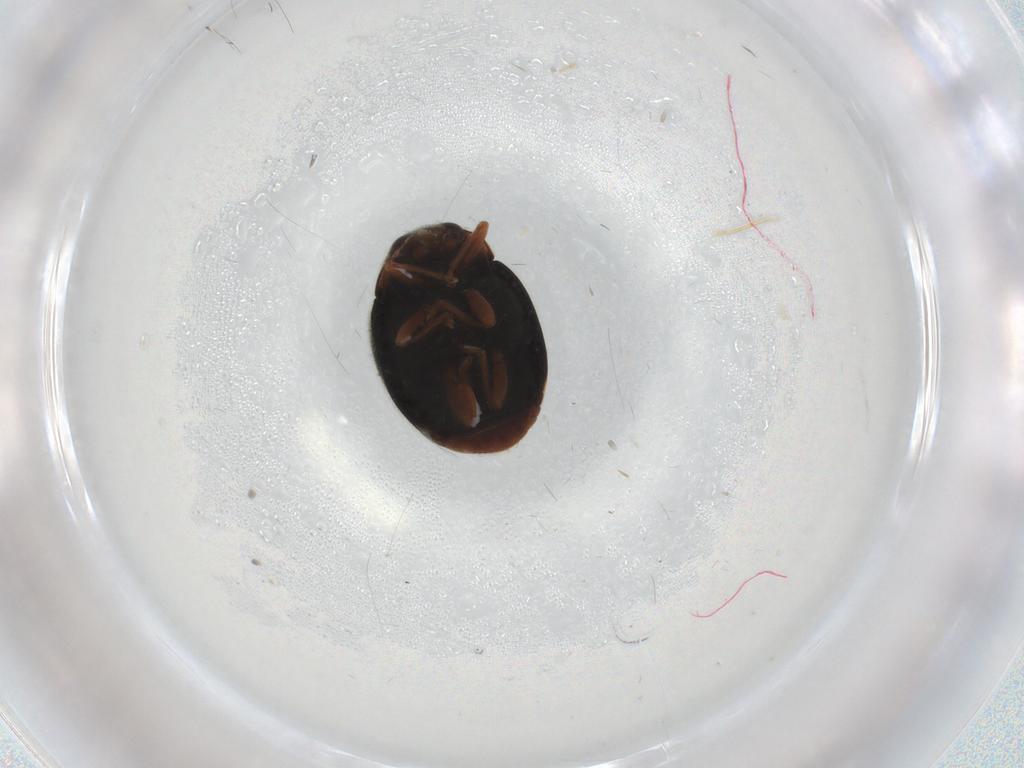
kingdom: Animalia
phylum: Arthropoda
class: Insecta
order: Coleoptera
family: Coccinellidae
